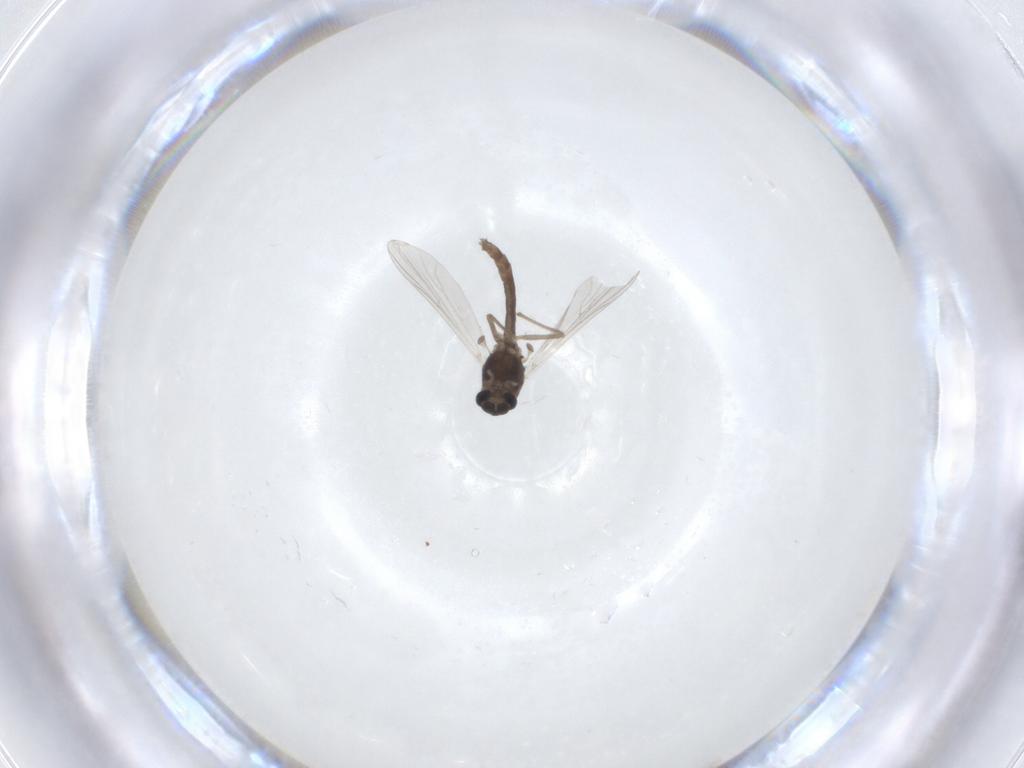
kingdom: Animalia
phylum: Arthropoda
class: Insecta
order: Diptera
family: Chironomidae
